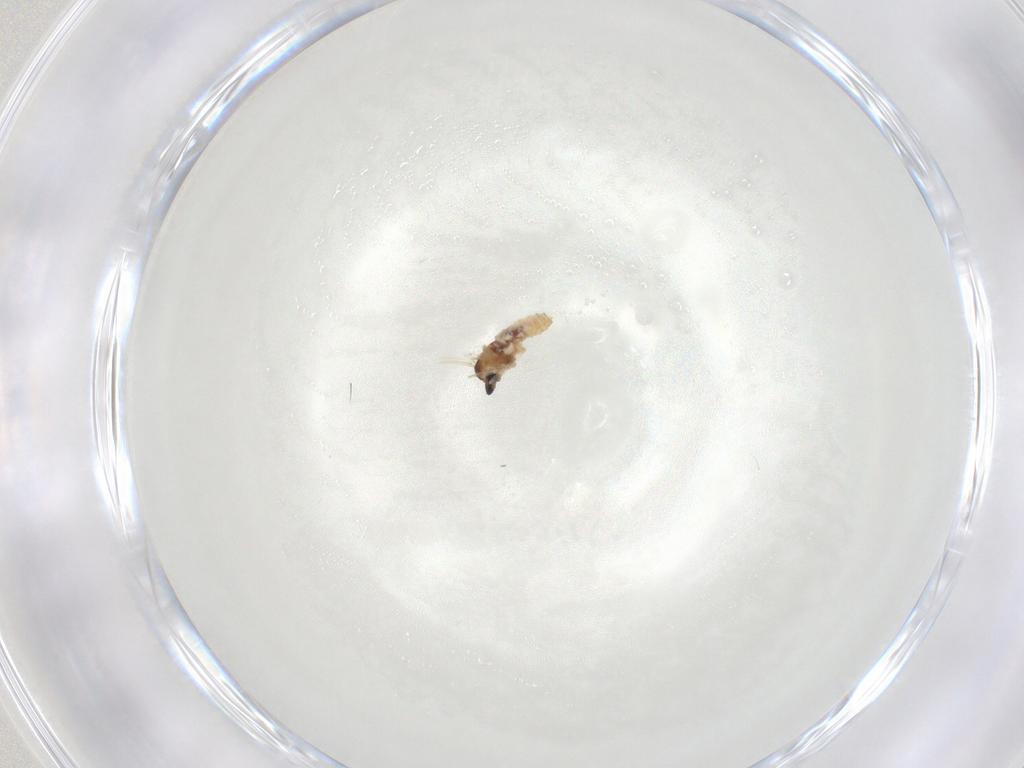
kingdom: Animalia
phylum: Arthropoda
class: Insecta
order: Diptera
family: Cecidomyiidae
